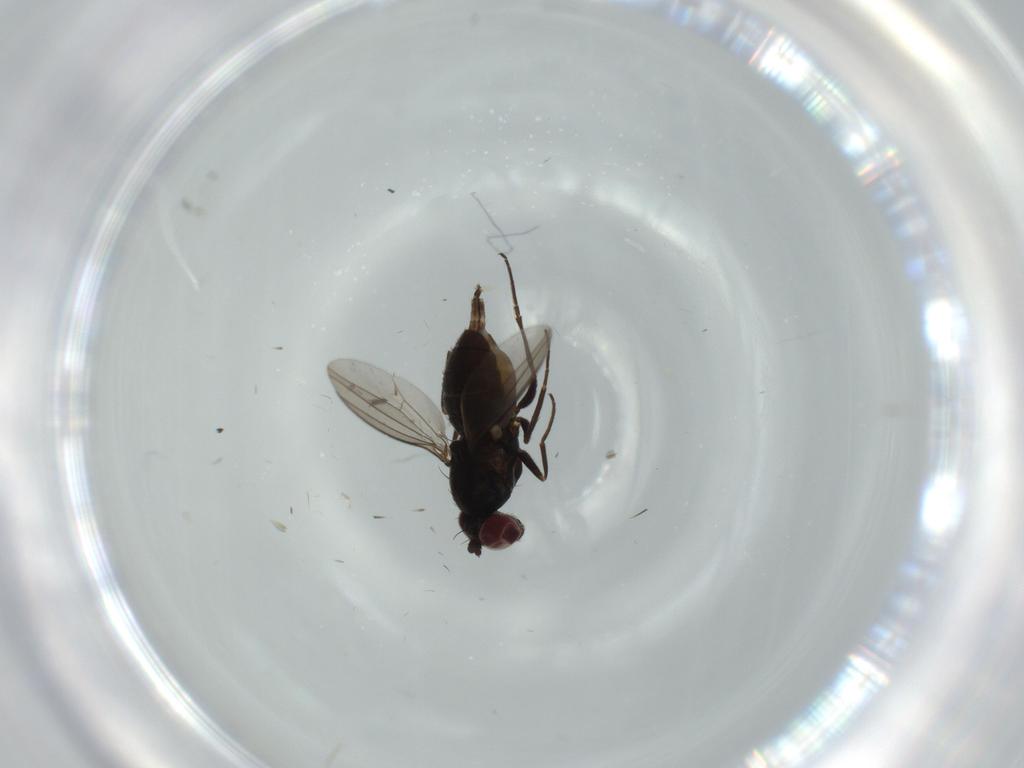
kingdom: Animalia
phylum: Arthropoda
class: Insecta
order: Diptera
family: Dolichopodidae
